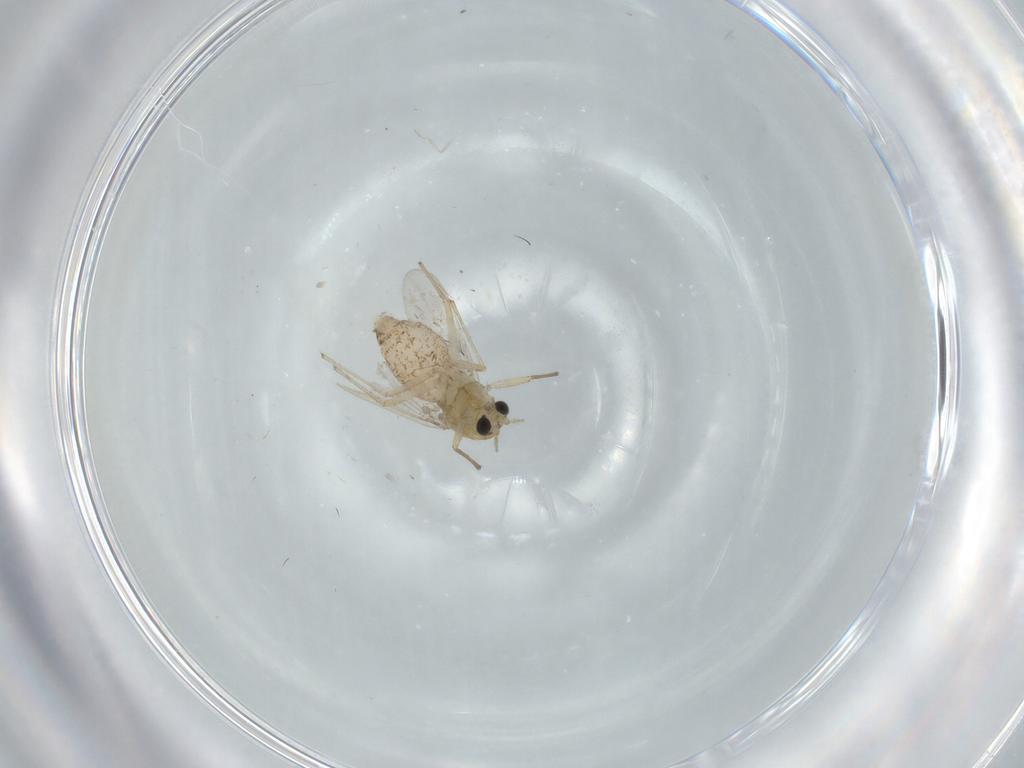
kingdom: Animalia
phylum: Arthropoda
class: Insecta
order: Diptera
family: Chironomidae
